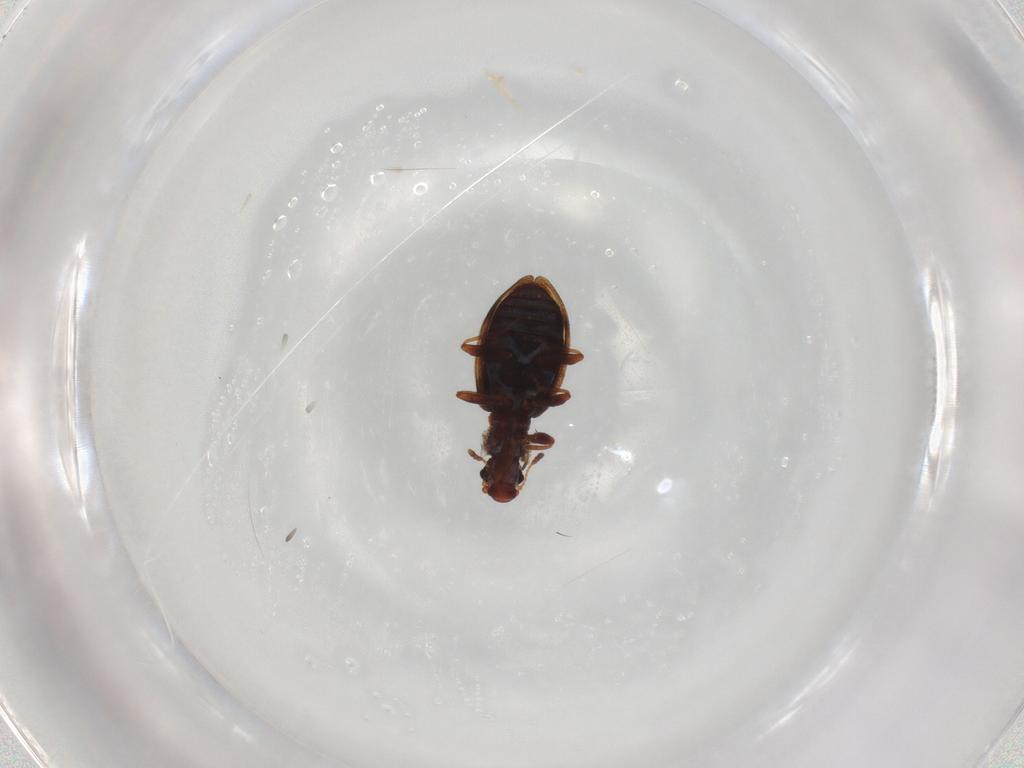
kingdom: Animalia
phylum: Arthropoda
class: Insecta
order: Coleoptera
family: Latridiidae
